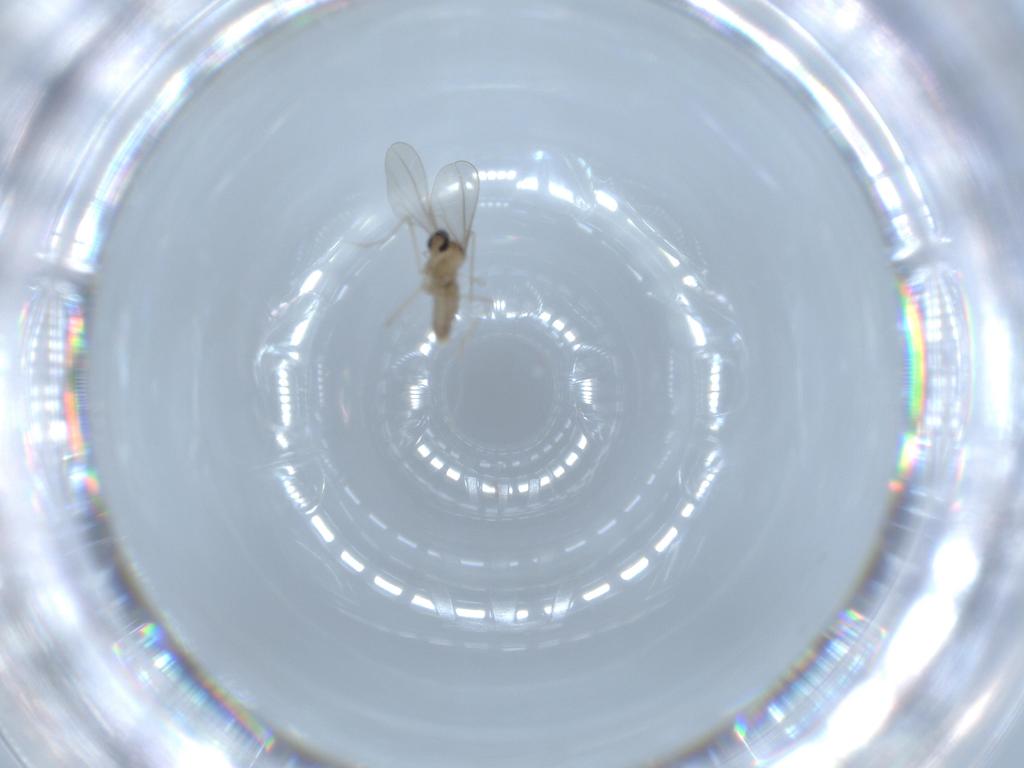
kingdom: Animalia
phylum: Arthropoda
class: Insecta
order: Diptera
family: Cecidomyiidae
